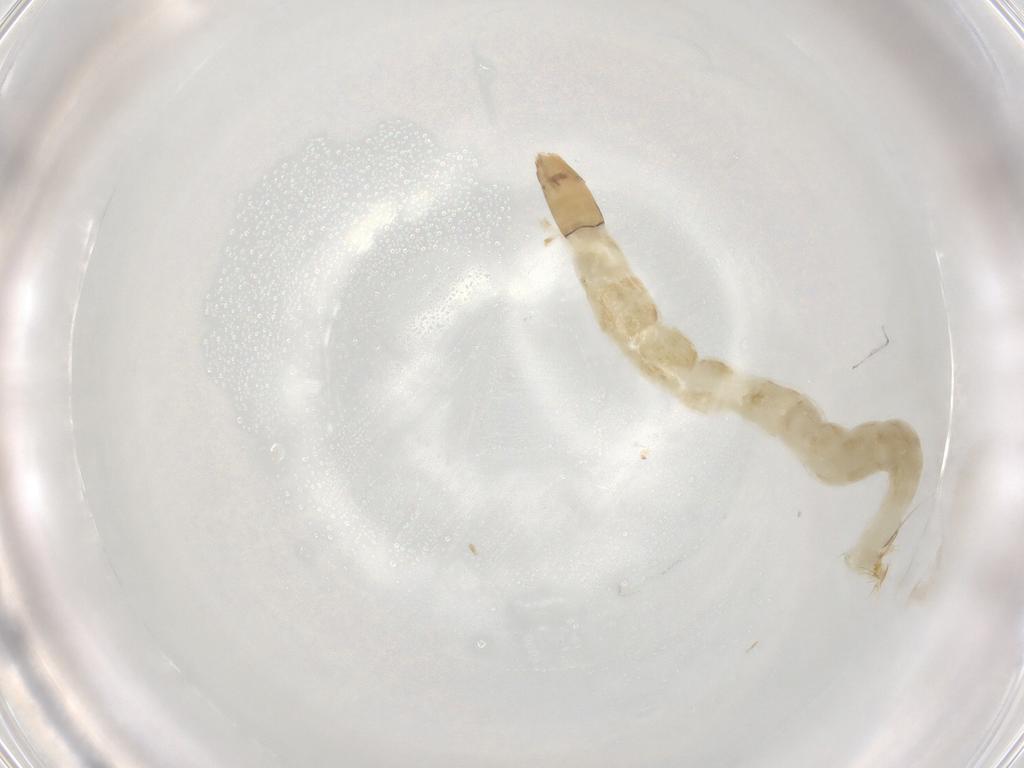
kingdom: Animalia
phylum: Arthropoda
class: Insecta
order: Diptera
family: Chironomidae
